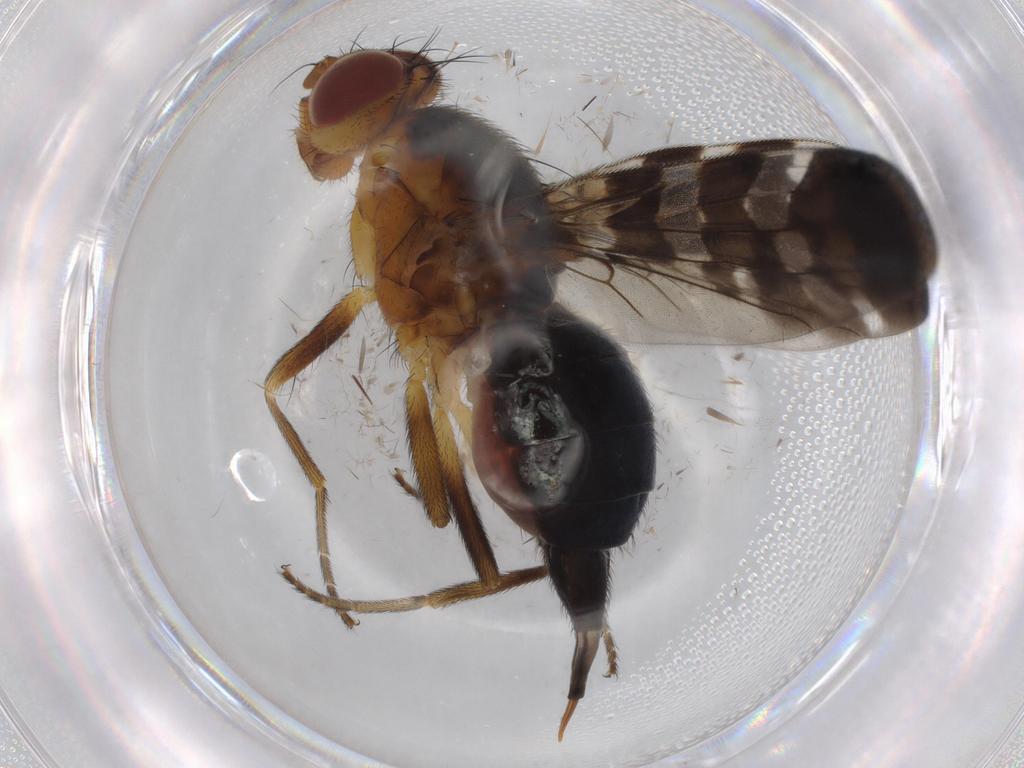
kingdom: Animalia
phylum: Arthropoda
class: Insecta
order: Diptera
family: Tephritidae
